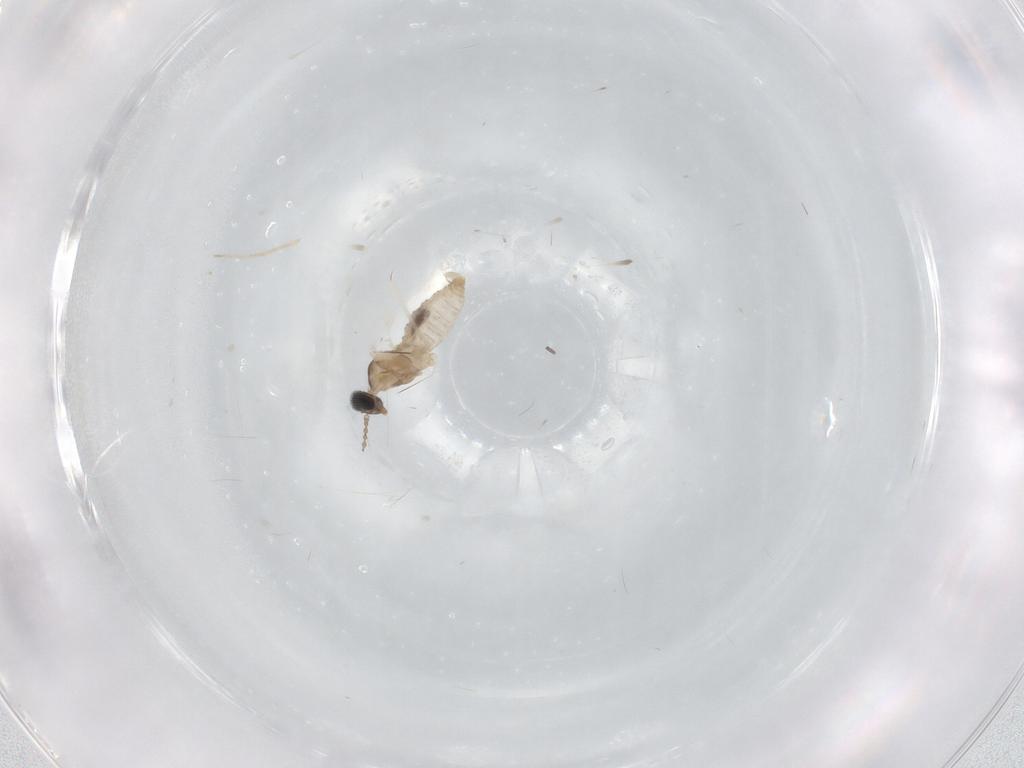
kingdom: Animalia
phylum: Arthropoda
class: Insecta
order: Diptera
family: Cecidomyiidae
